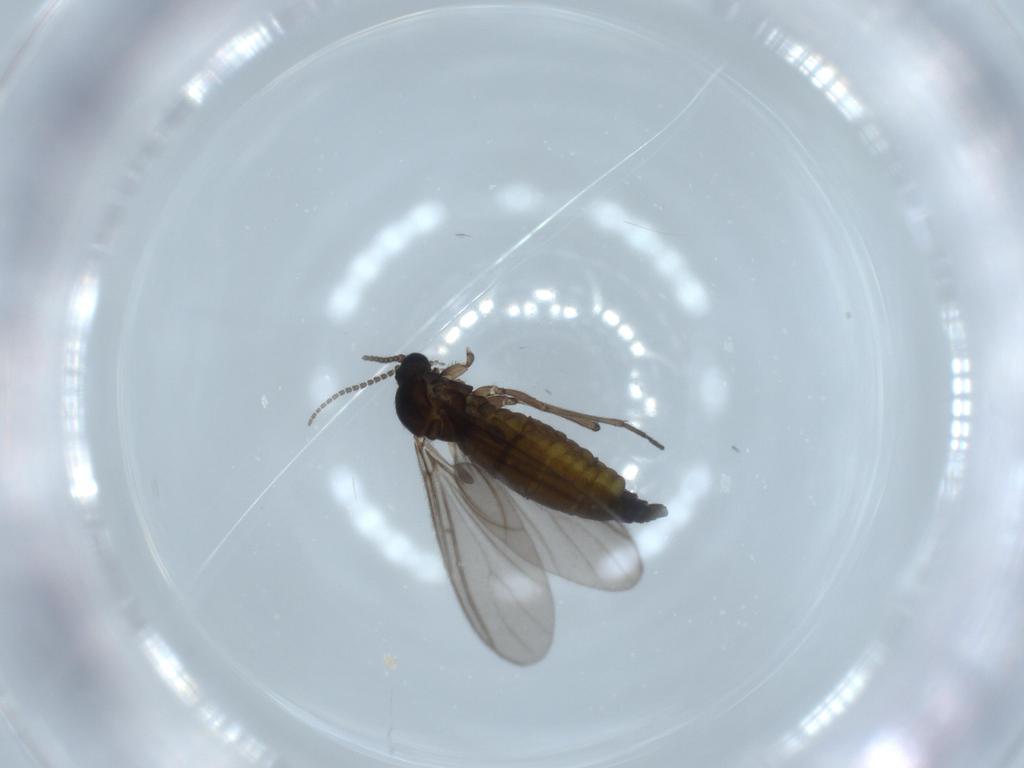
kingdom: Animalia
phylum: Arthropoda
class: Insecta
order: Diptera
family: Sciaridae
